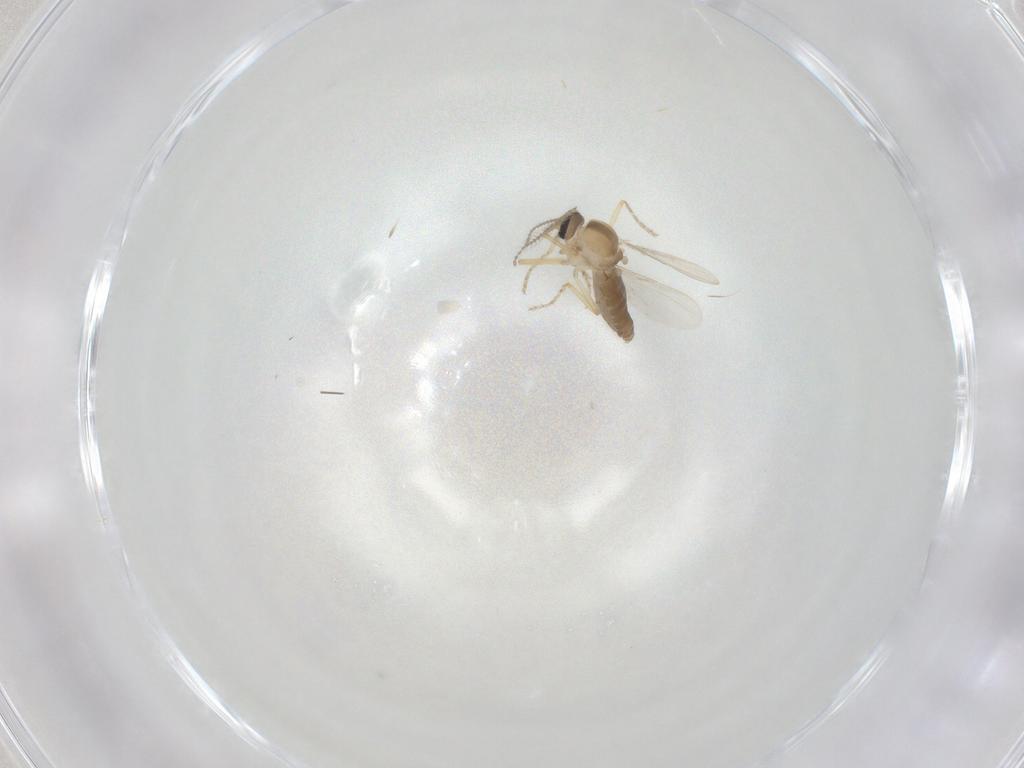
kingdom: Animalia
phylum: Arthropoda
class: Insecta
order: Diptera
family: Ceratopogonidae
